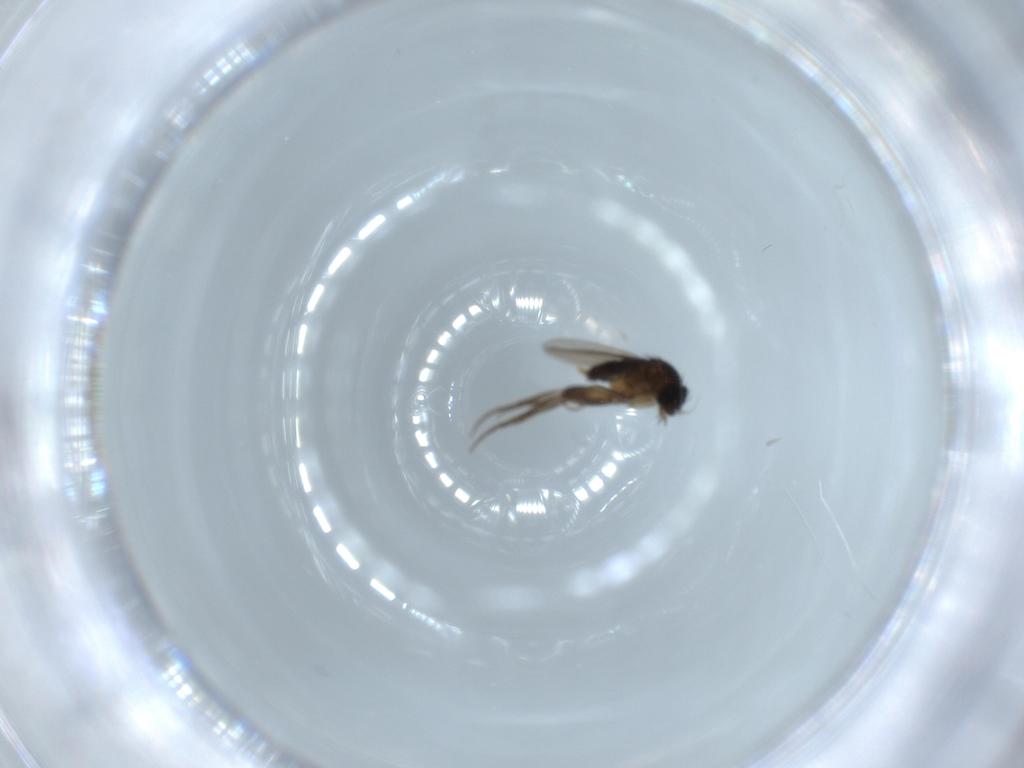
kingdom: Animalia
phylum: Arthropoda
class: Insecta
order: Diptera
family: Phoridae
